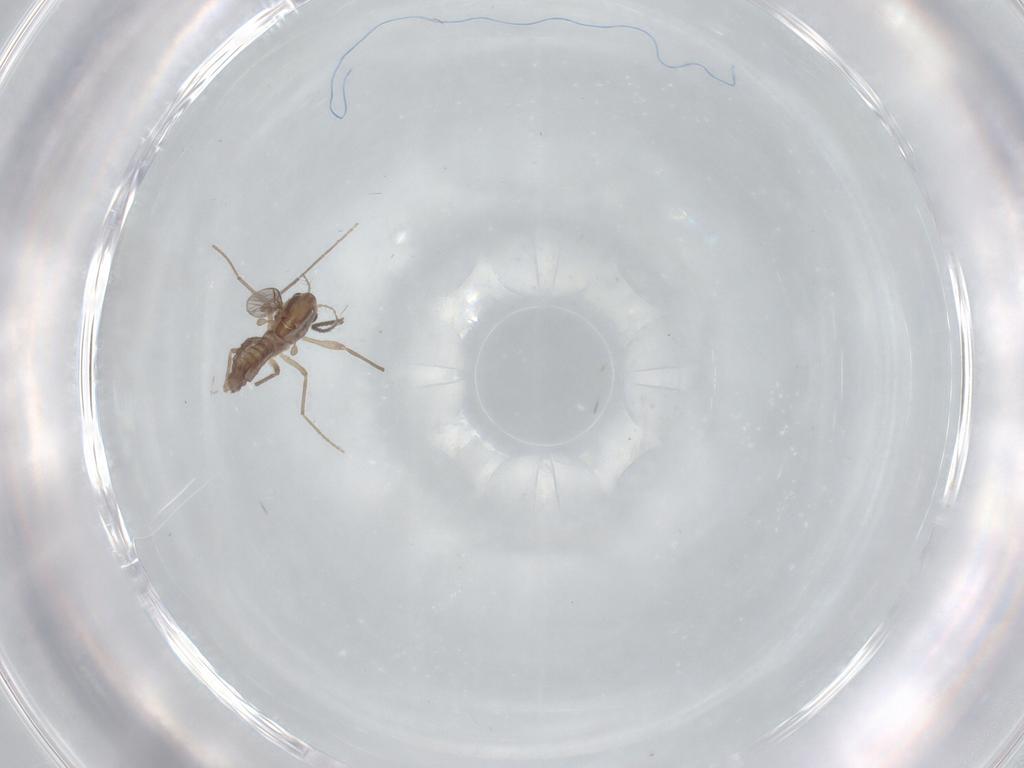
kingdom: Animalia
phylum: Arthropoda
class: Insecta
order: Diptera
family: Chironomidae
